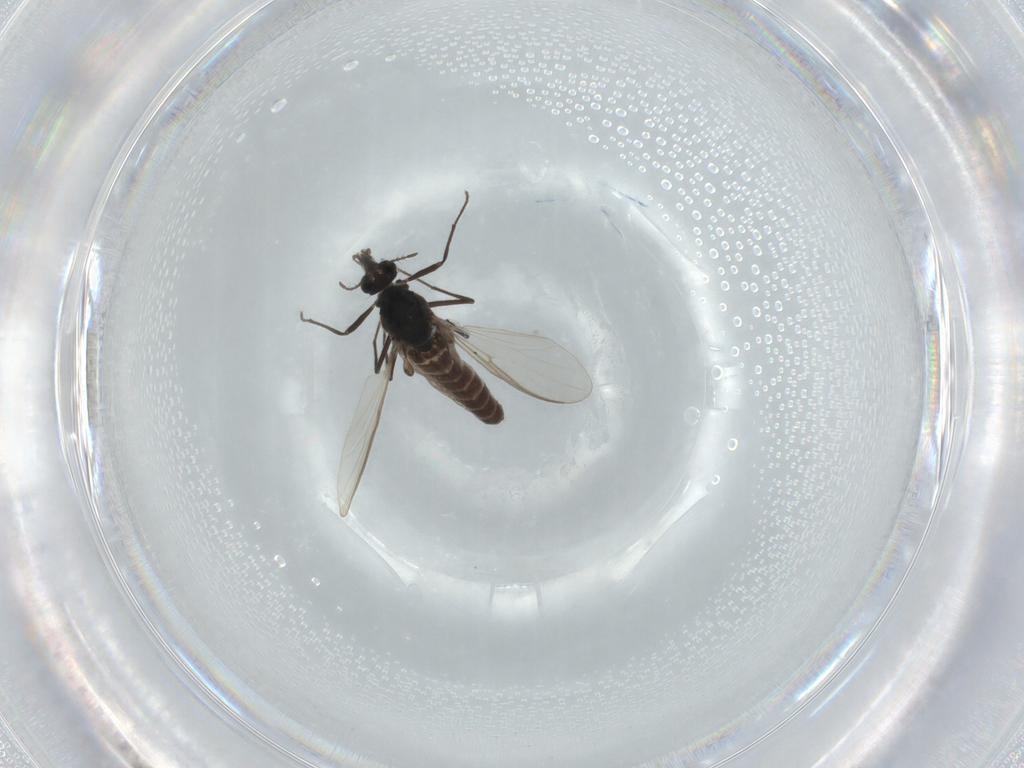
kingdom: Animalia
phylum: Arthropoda
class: Insecta
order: Diptera
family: Chironomidae
